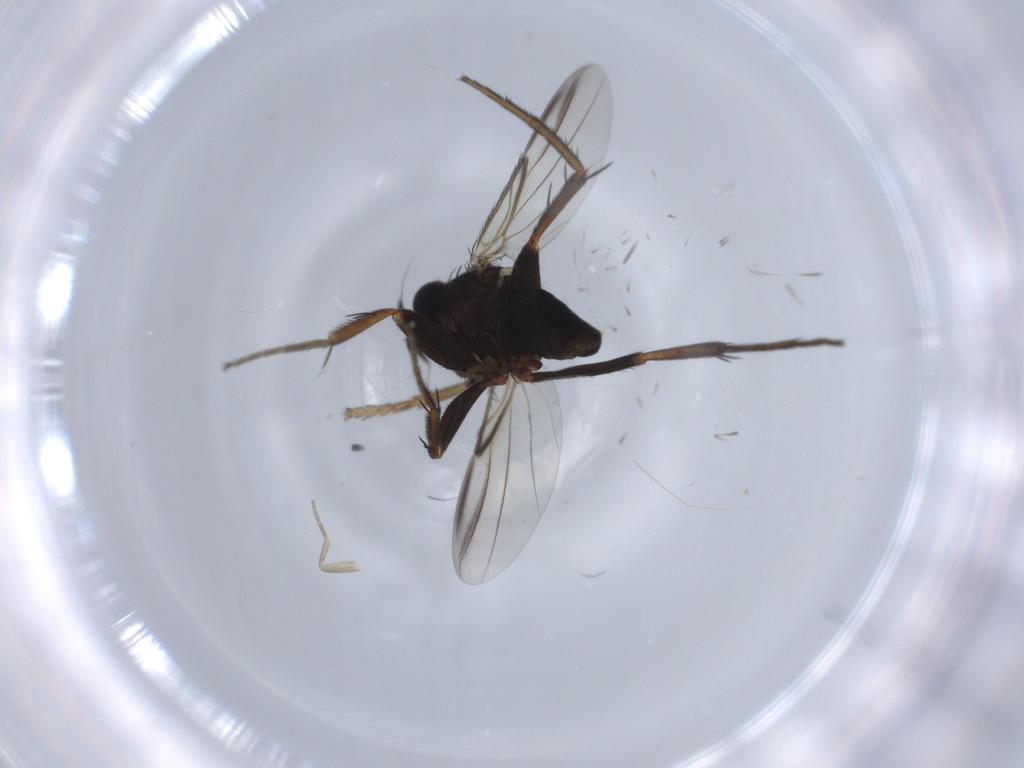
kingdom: Animalia
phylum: Arthropoda
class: Insecta
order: Diptera
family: Phoridae
